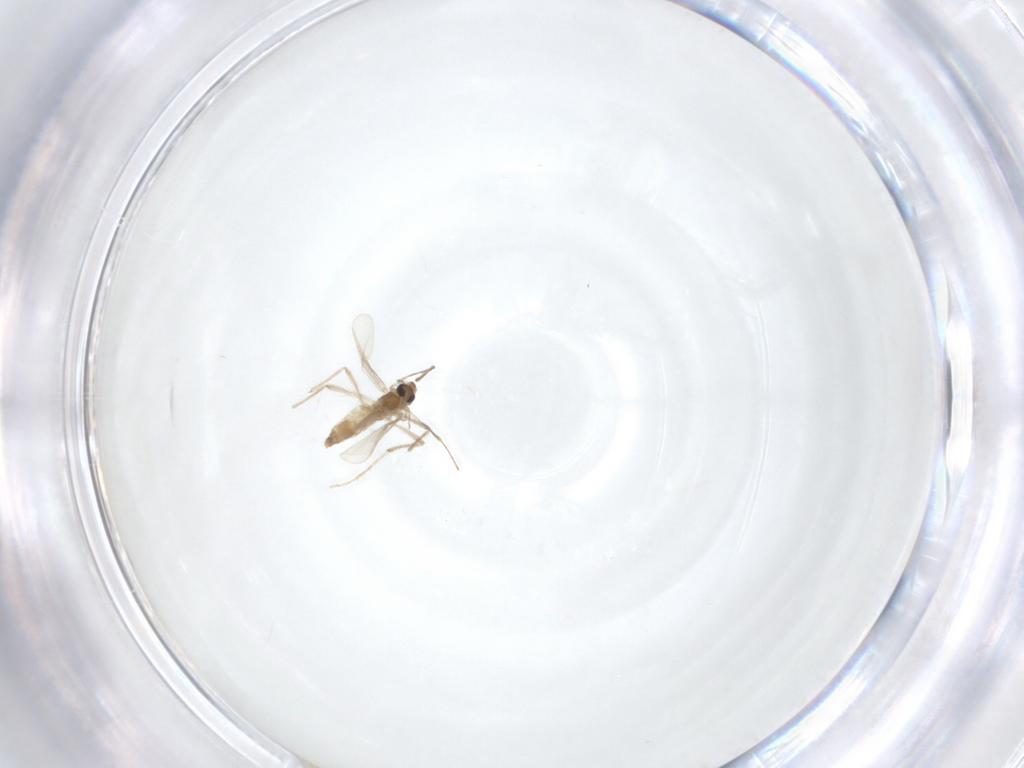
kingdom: Animalia
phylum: Arthropoda
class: Insecta
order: Diptera
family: Chironomidae
